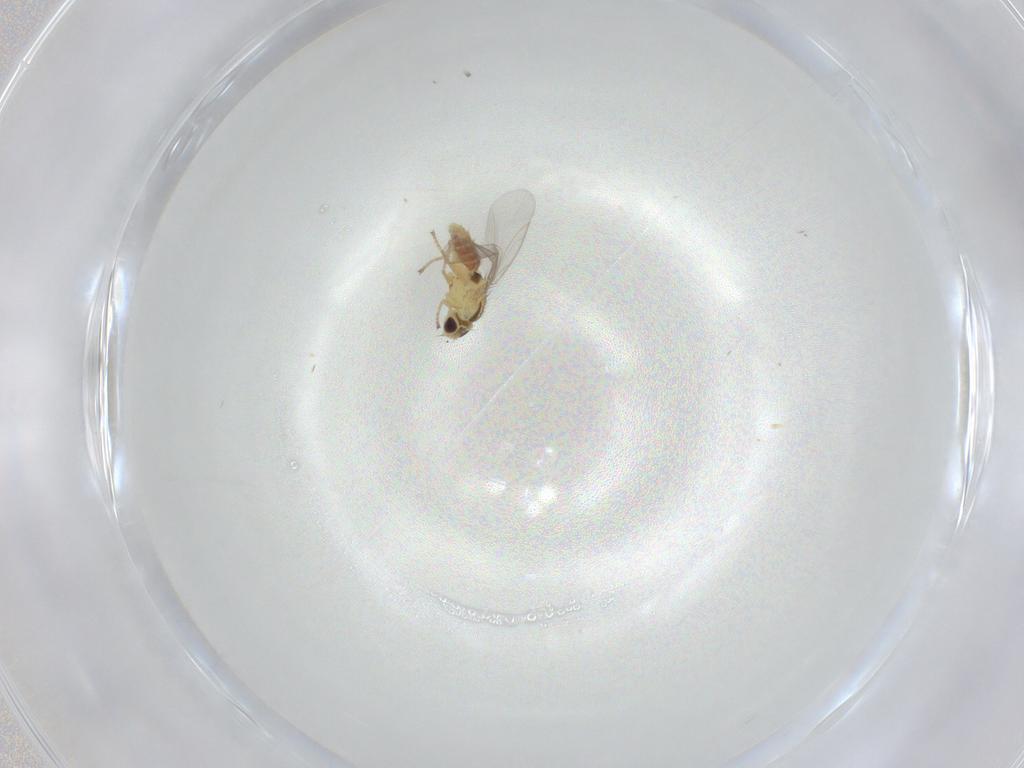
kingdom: Animalia
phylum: Arthropoda
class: Insecta
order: Diptera
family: Agromyzidae
